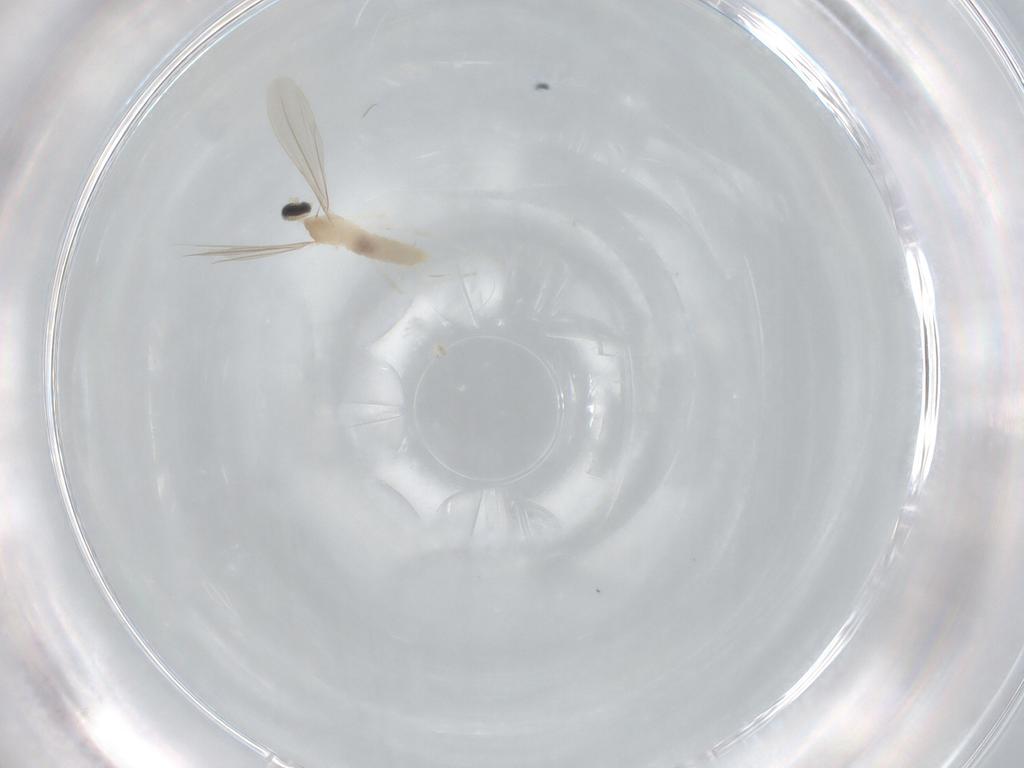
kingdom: Animalia
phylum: Arthropoda
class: Insecta
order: Diptera
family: Cecidomyiidae
